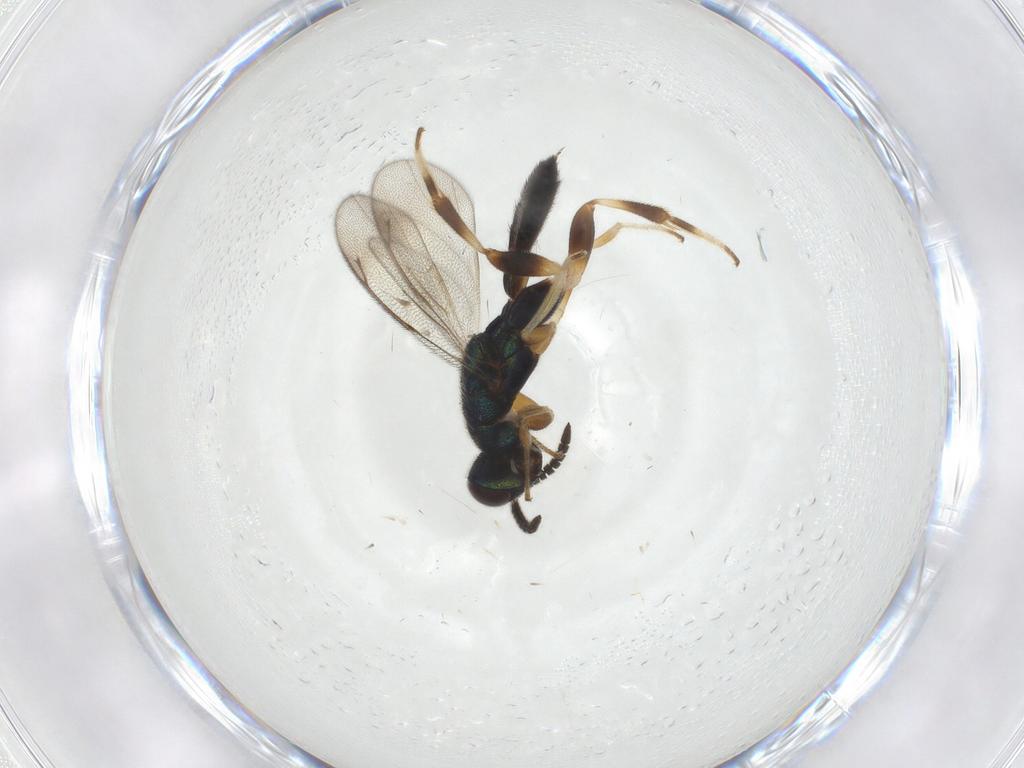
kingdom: Animalia
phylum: Arthropoda
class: Insecta
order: Hymenoptera
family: Cleonyminae
